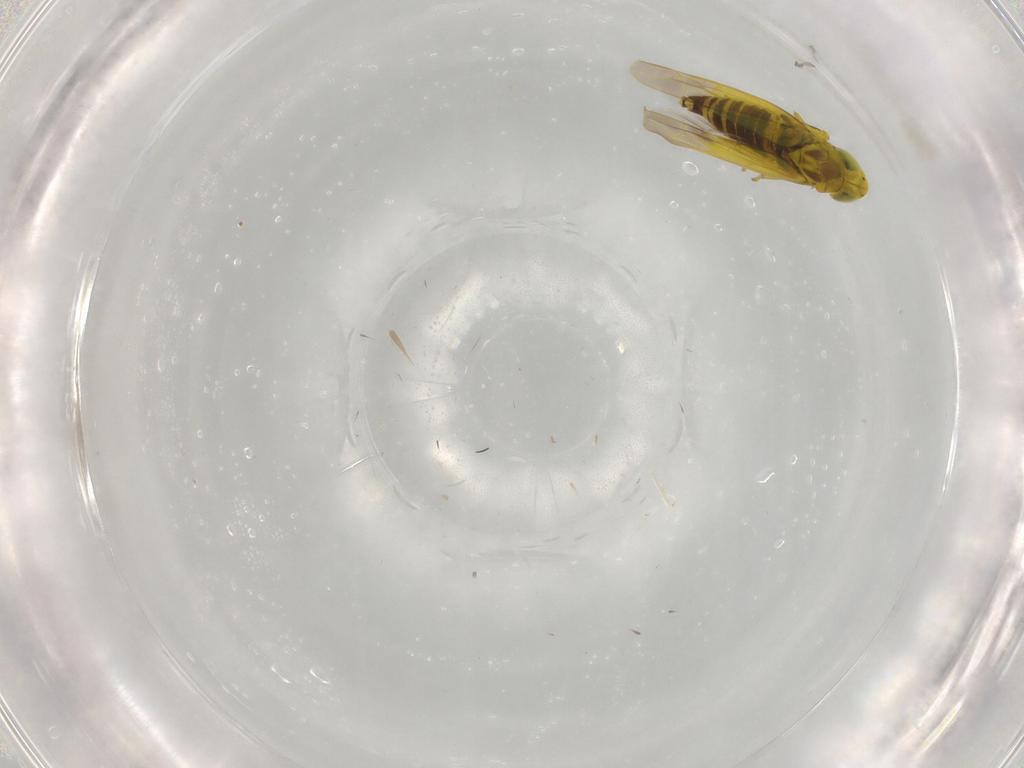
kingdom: Animalia
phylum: Arthropoda
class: Insecta
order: Hemiptera
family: Cicadellidae
